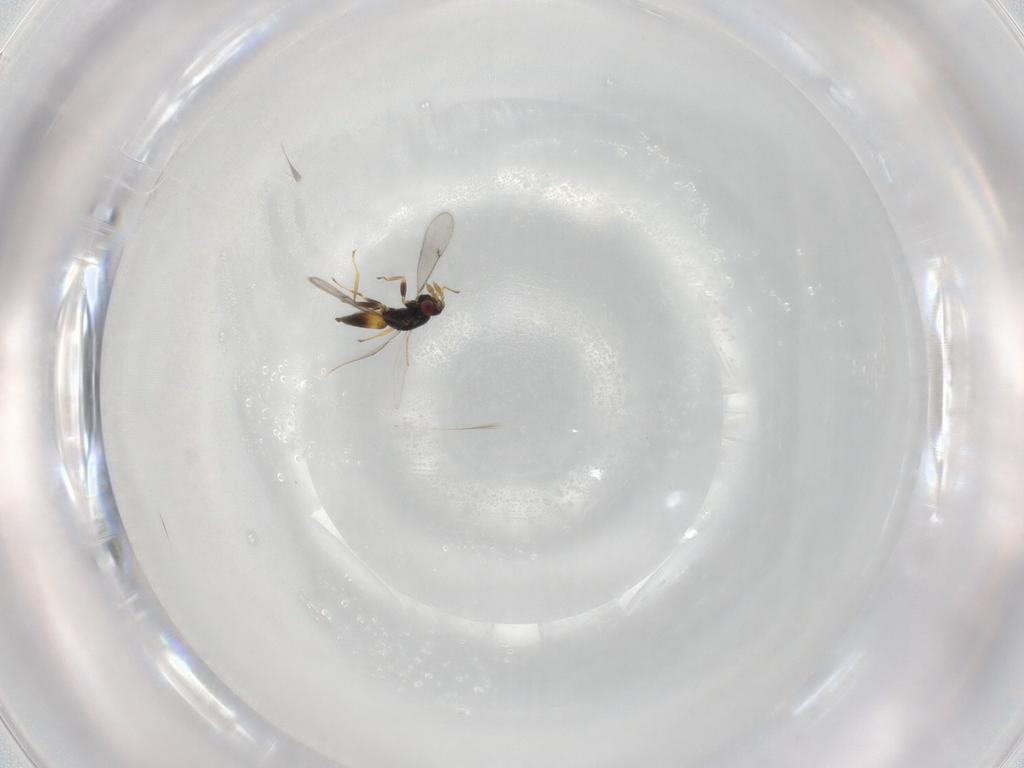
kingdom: Animalia
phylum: Arthropoda
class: Insecta
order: Hymenoptera
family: Eulophidae
